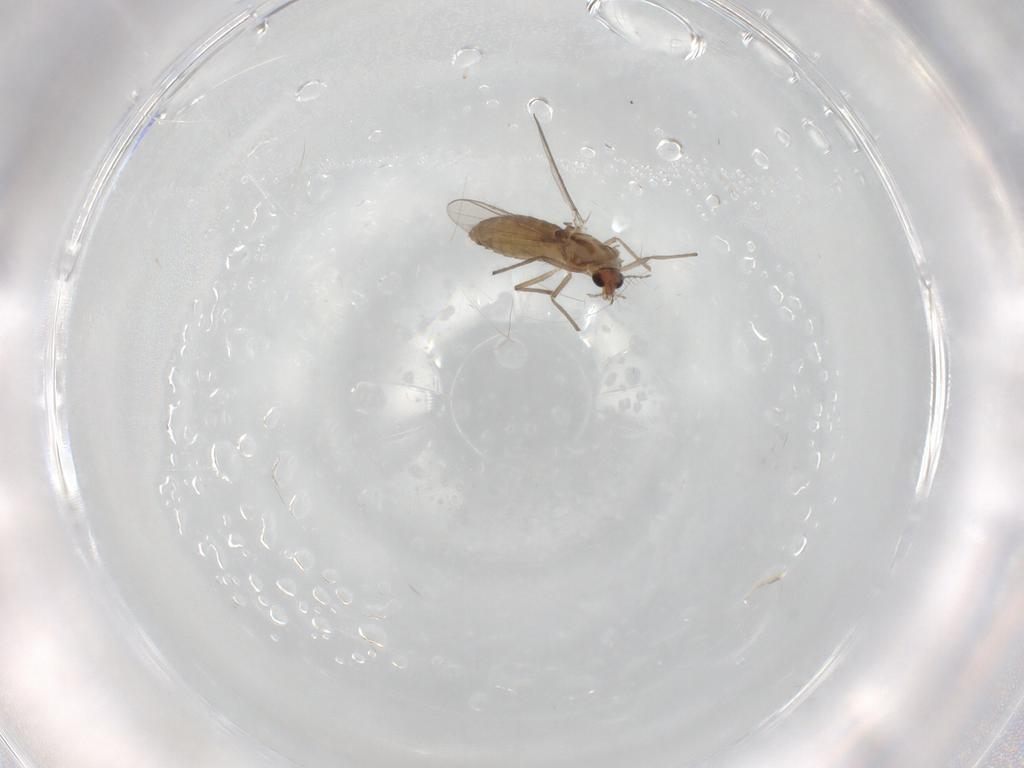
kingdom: Animalia
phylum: Arthropoda
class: Insecta
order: Diptera
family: Chironomidae
